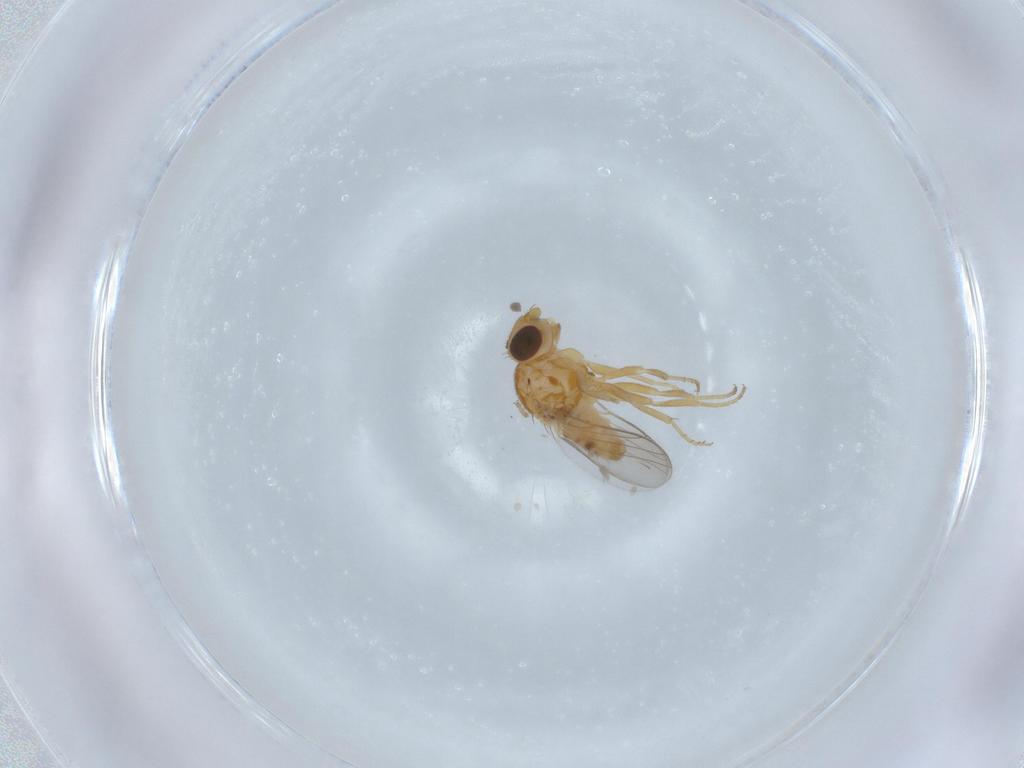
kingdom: Animalia
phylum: Arthropoda
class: Insecta
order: Diptera
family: Chloropidae
